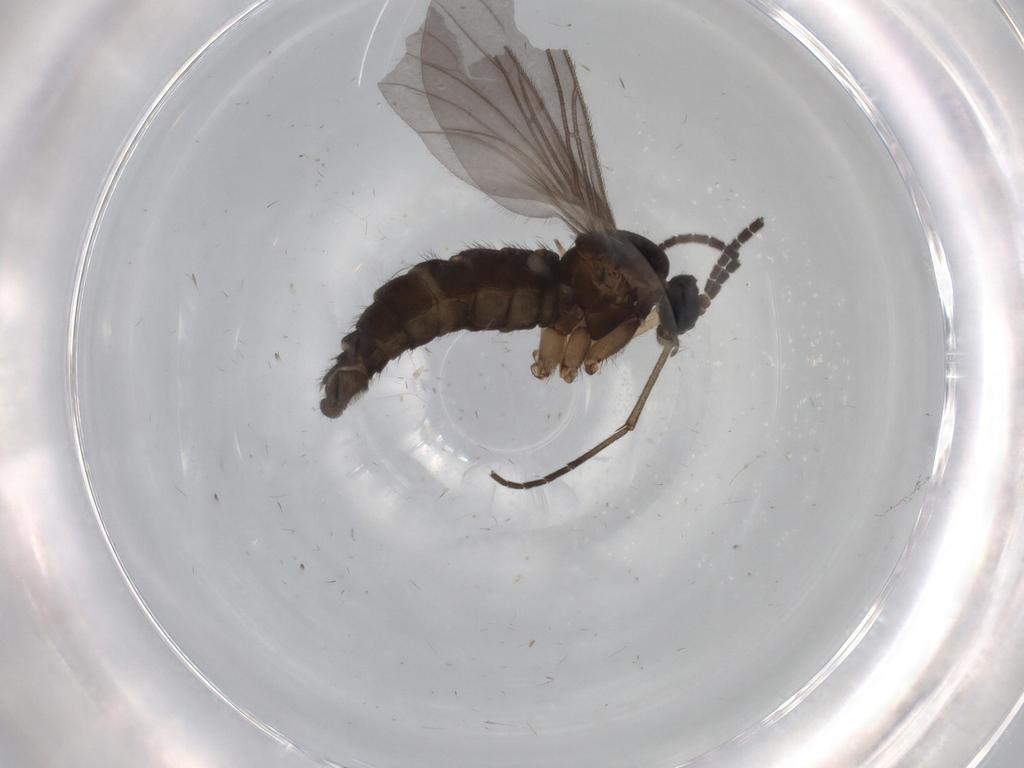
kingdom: Animalia
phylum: Arthropoda
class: Insecta
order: Diptera
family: Sciaridae
